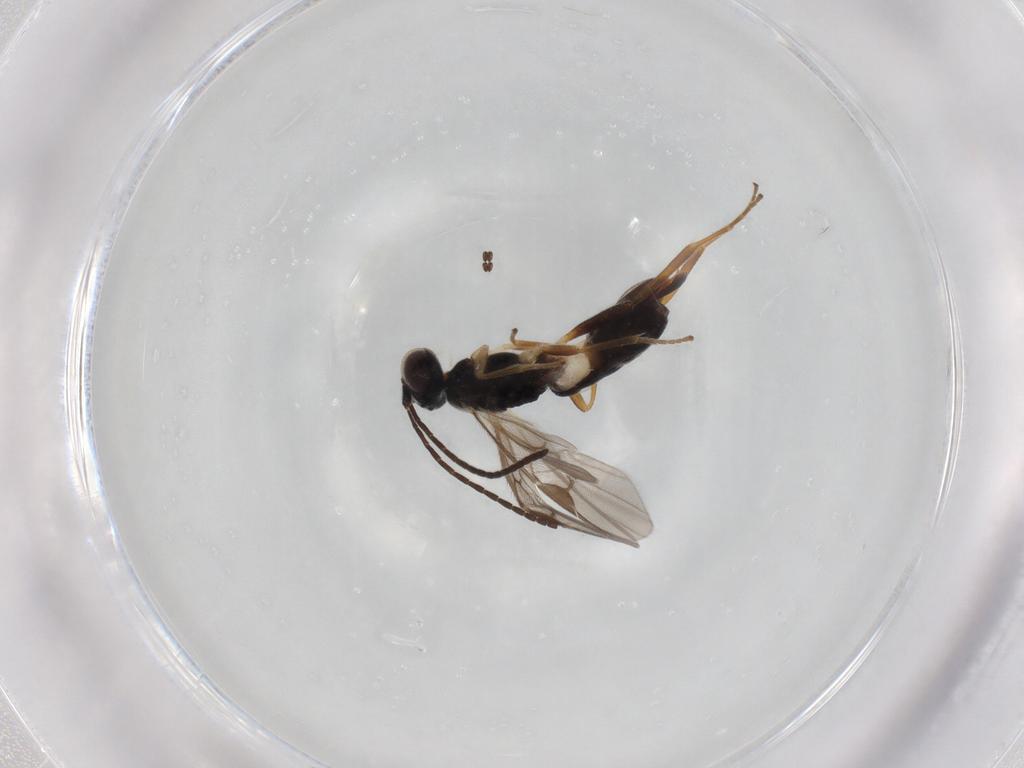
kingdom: Animalia
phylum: Arthropoda
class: Insecta
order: Hymenoptera
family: Braconidae
